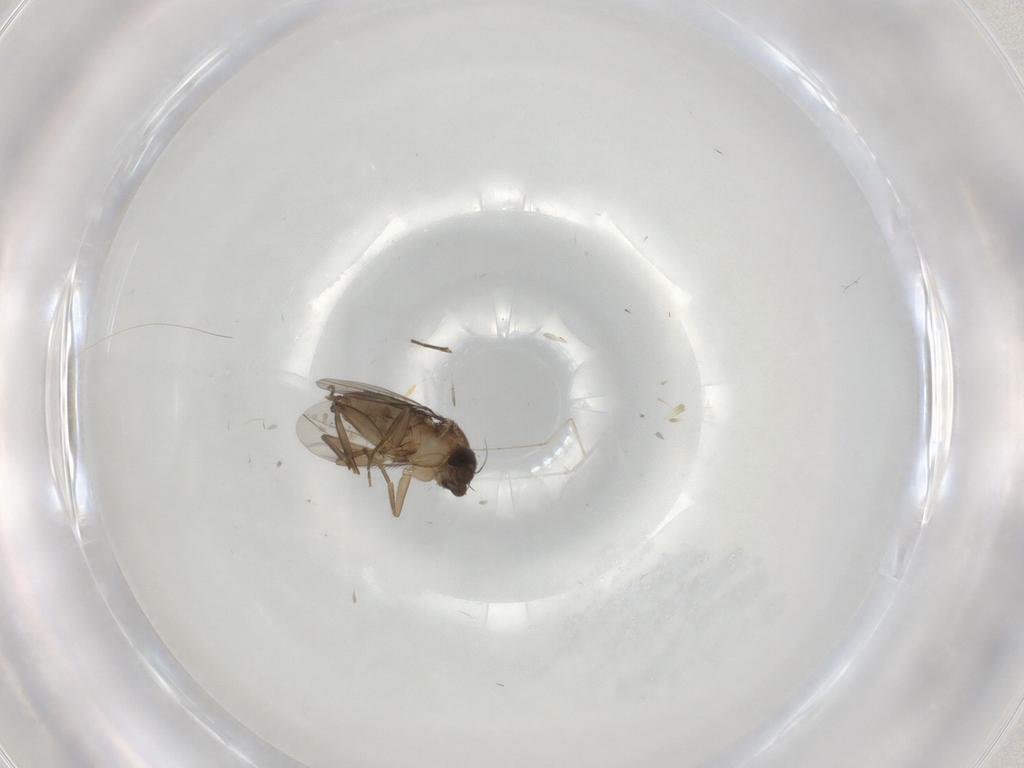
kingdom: Animalia
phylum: Arthropoda
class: Insecta
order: Diptera
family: Phoridae
